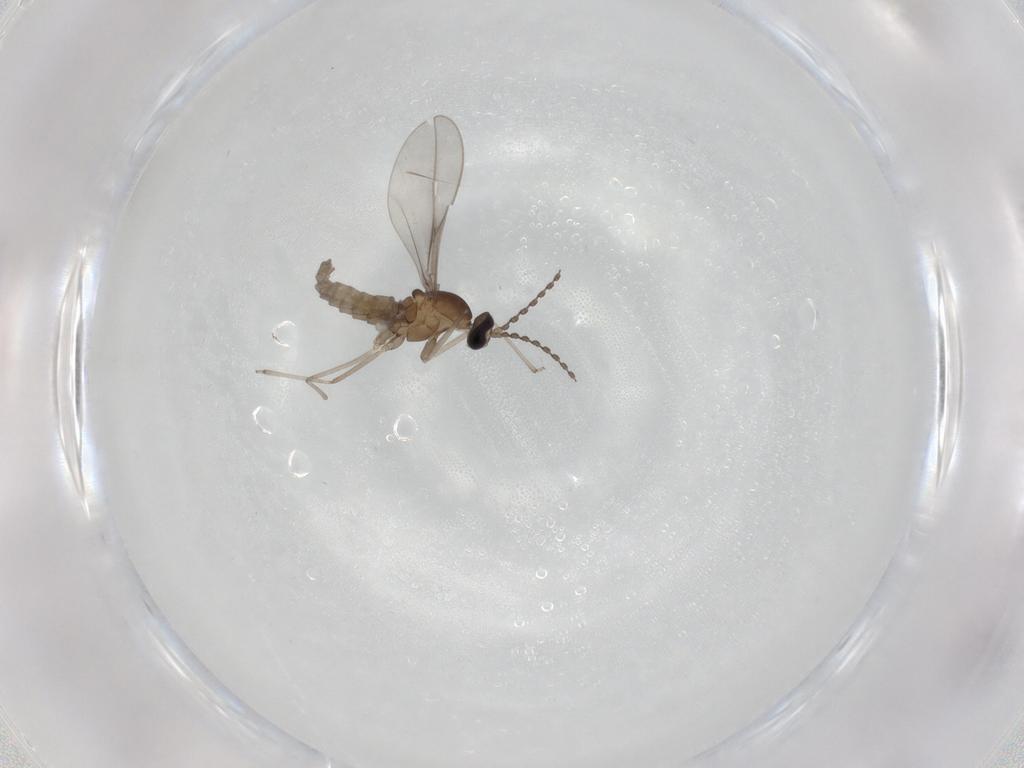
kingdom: Animalia
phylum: Arthropoda
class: Insecta
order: Diptera
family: Cecidomyiidae
